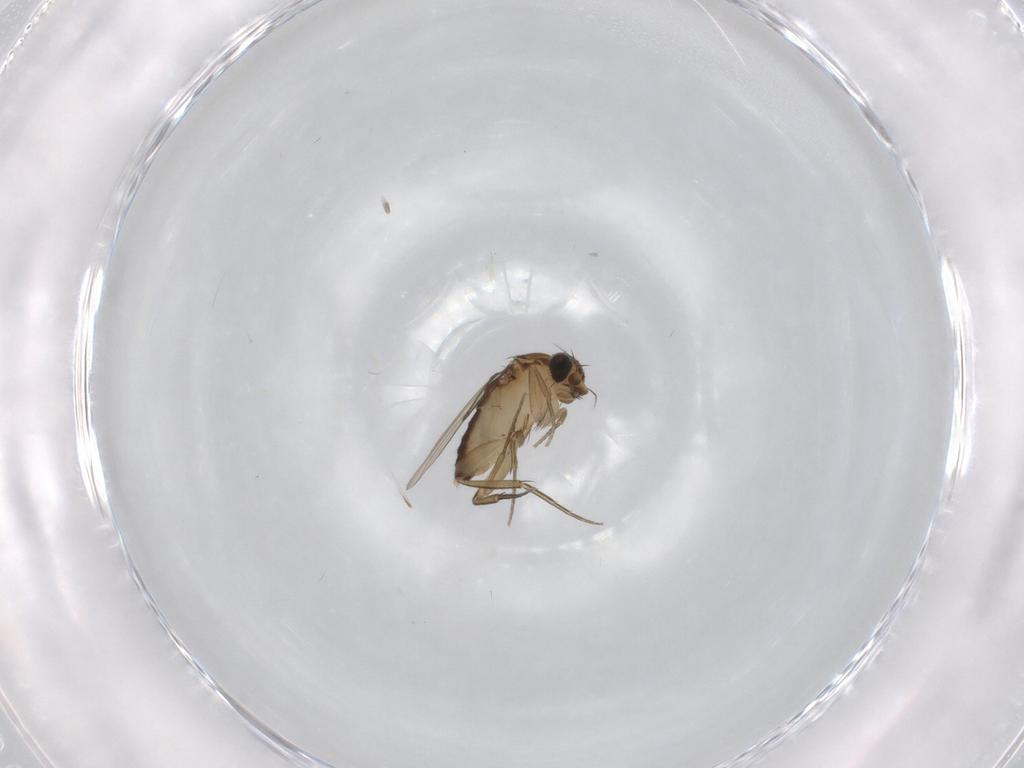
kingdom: Animalia
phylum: Arthropoda
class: Insecta
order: Diptera
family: Phoridae
